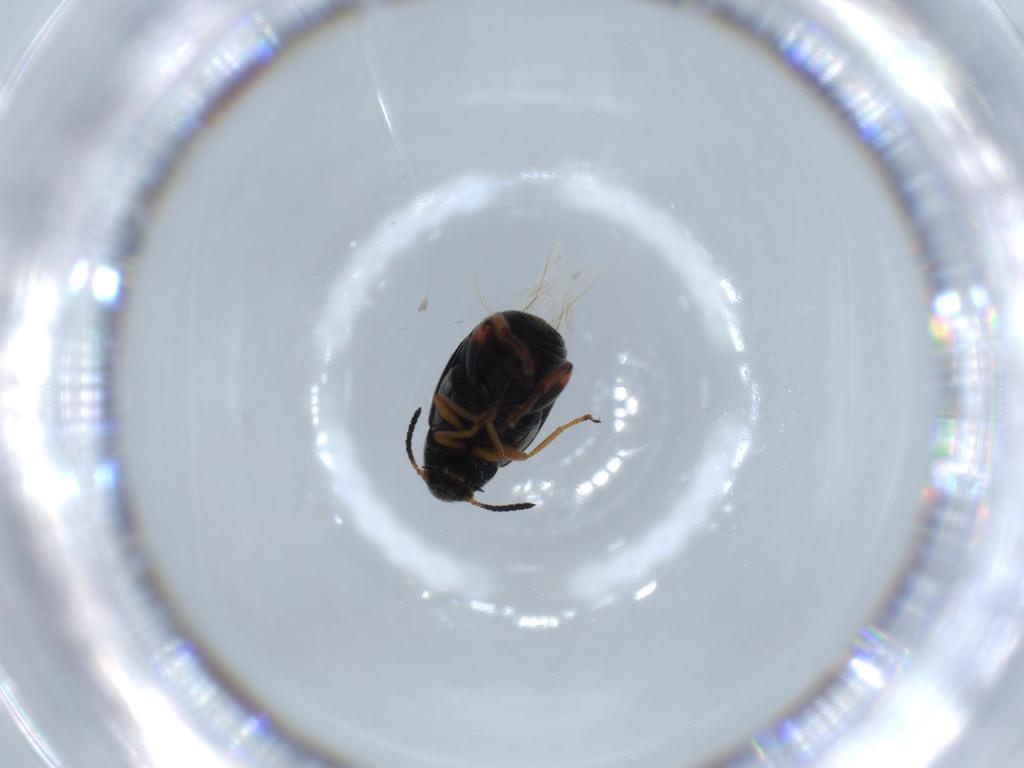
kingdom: Animalia
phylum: Arthropoda
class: Insecta
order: Coleoptera
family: Chrysomelidae
